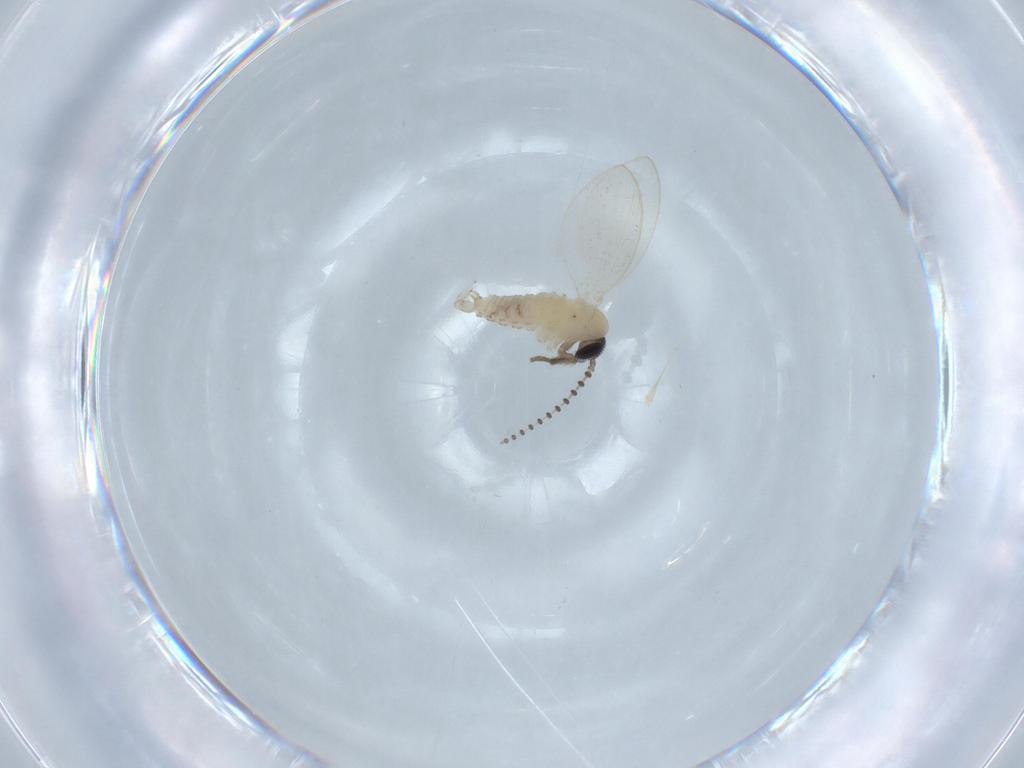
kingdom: Animalia
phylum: Arthropoda
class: Insecta
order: Diptera
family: Psychodidae
